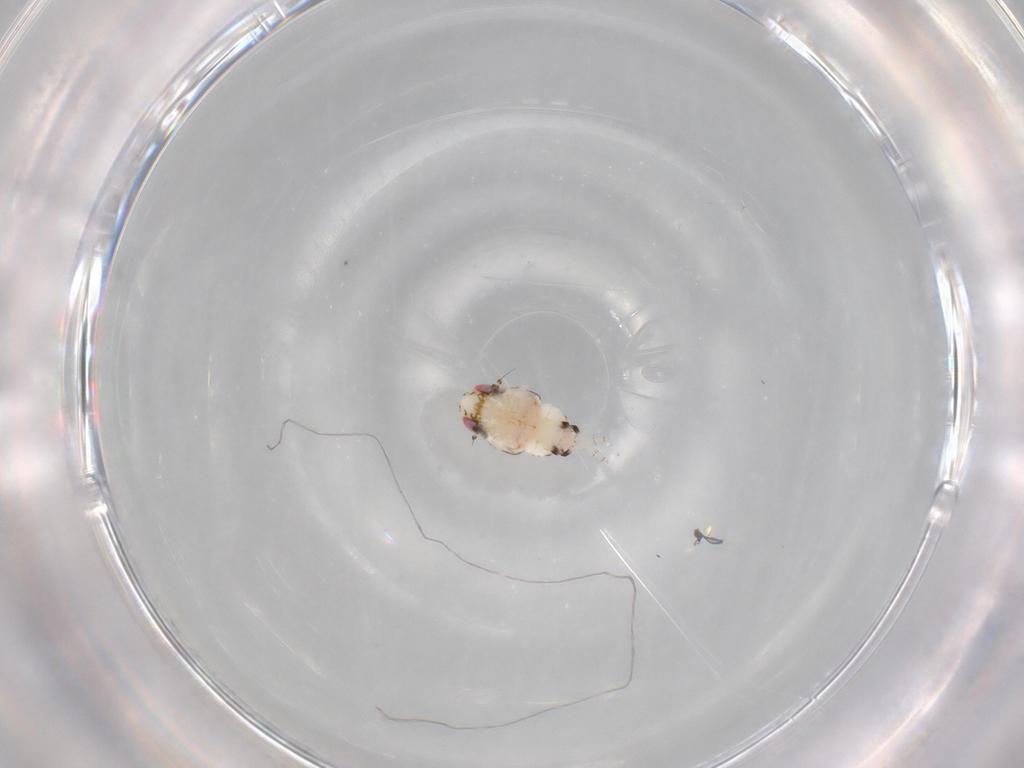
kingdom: Animalia
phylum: Arthropoda
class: Insecta
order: Hemiptera
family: Nogodinidae
